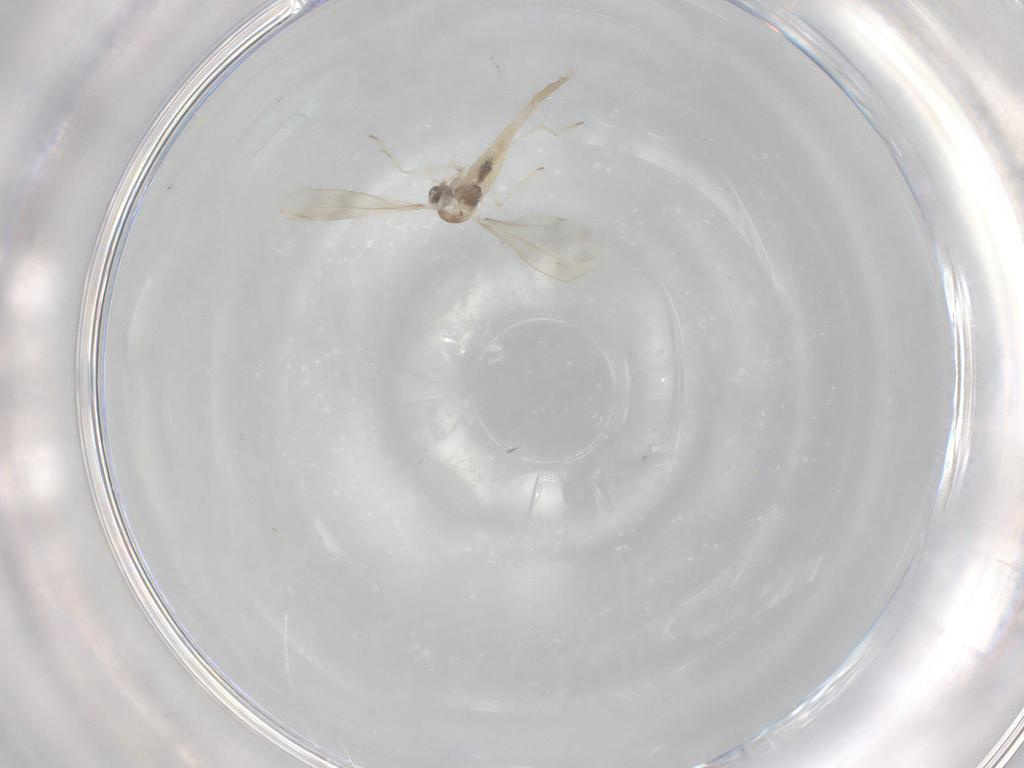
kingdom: Animalia
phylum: Arthropoda
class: Insecta
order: Diptera
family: Cecidomyiidae
